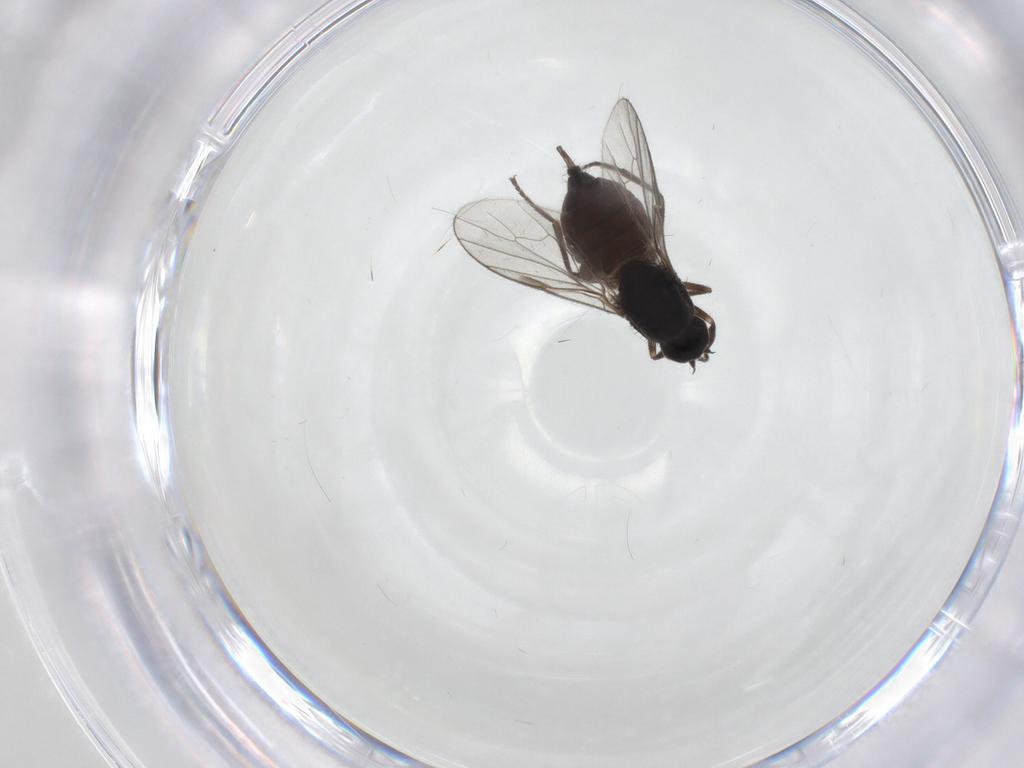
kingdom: Animalia
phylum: Arthropoda
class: Insecta
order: Diptera
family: Hybotidae
